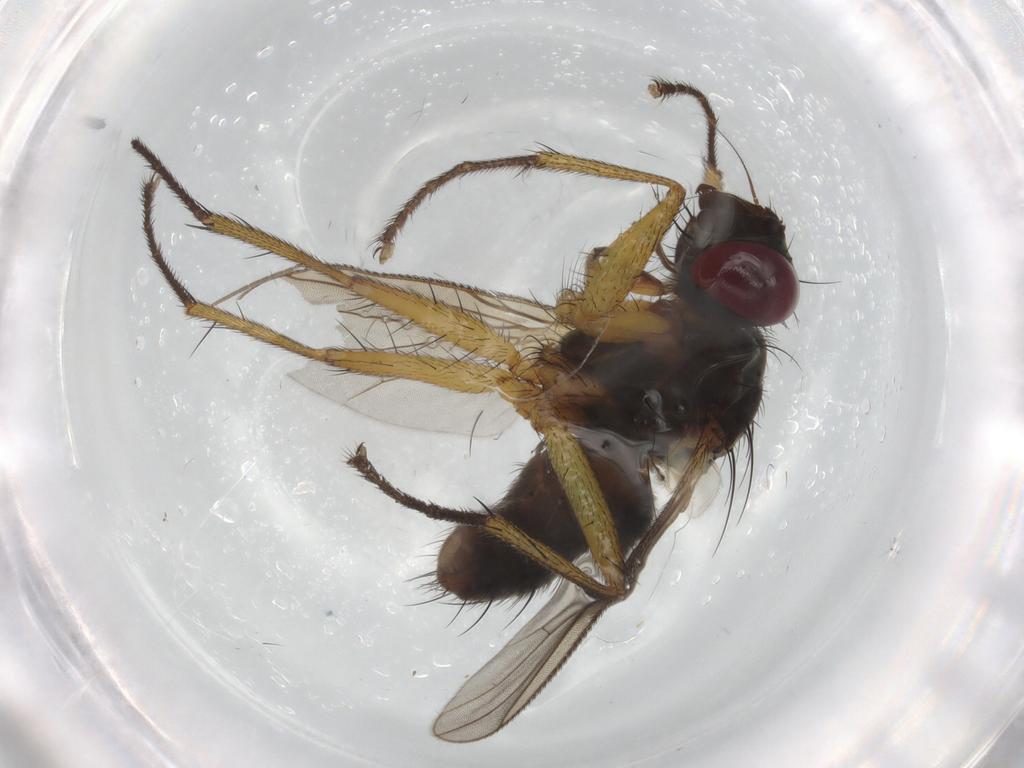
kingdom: Animalia
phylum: Arthropoda
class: Insecta
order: Diptera
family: Muscidae
